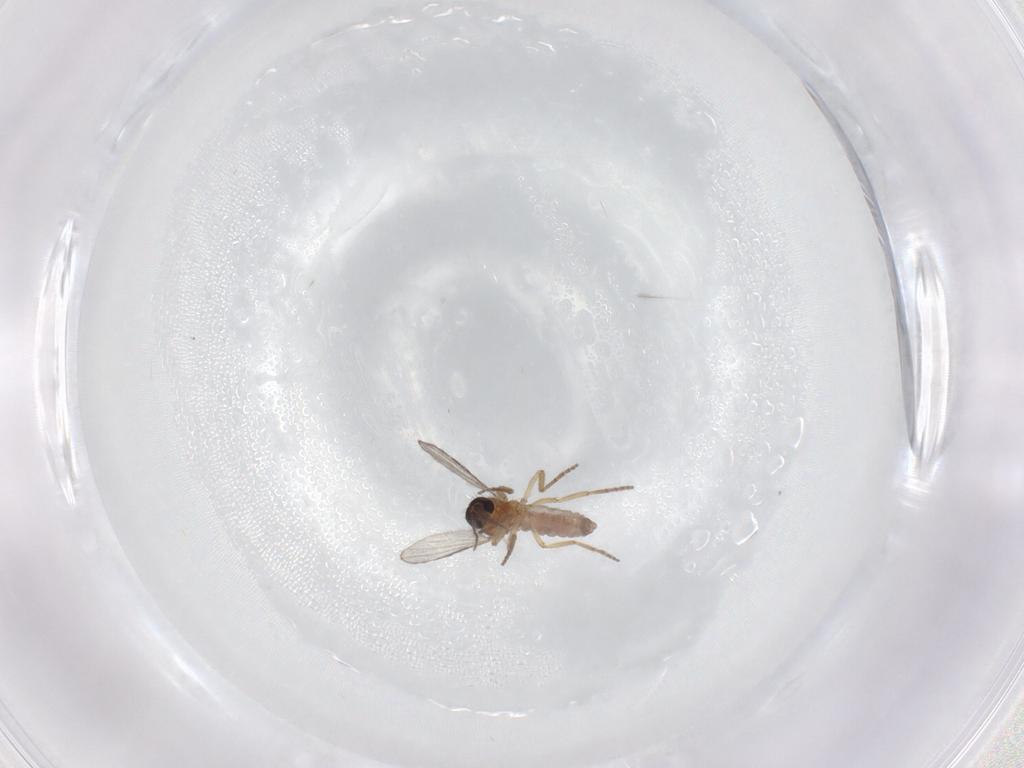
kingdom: Animalia
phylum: Arthropoda
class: Insecta
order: Diptera
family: Ceratopogonidae
